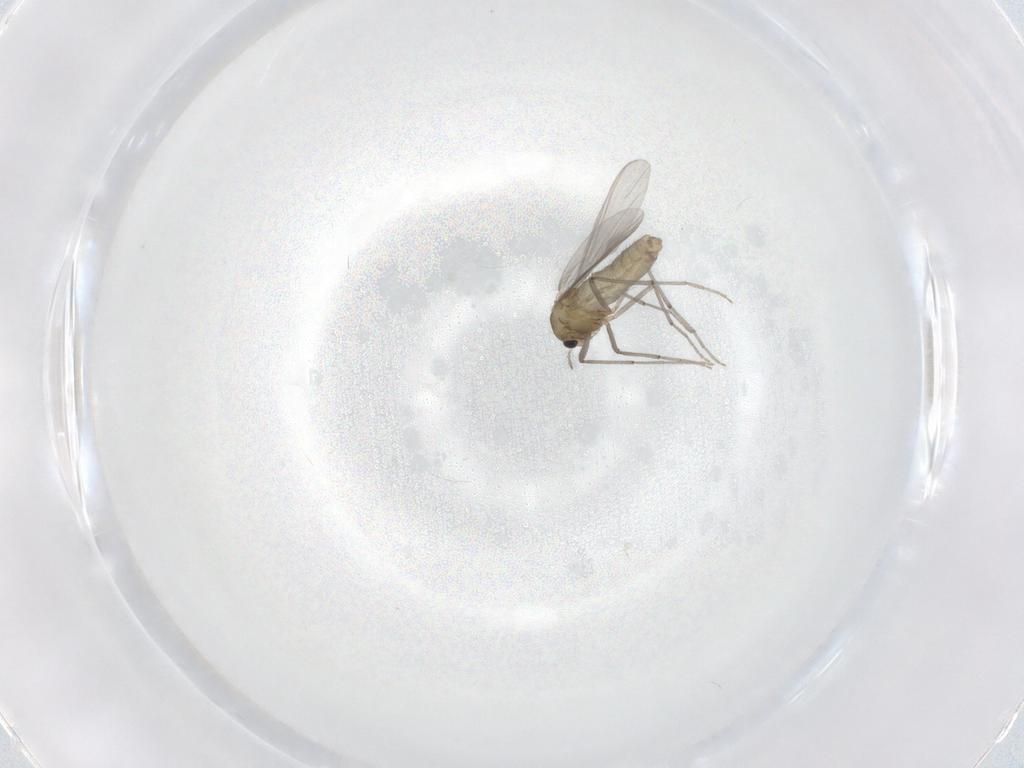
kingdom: Animalia
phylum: Arthropoda
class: Insecta
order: Diptera
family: Chironomidae
